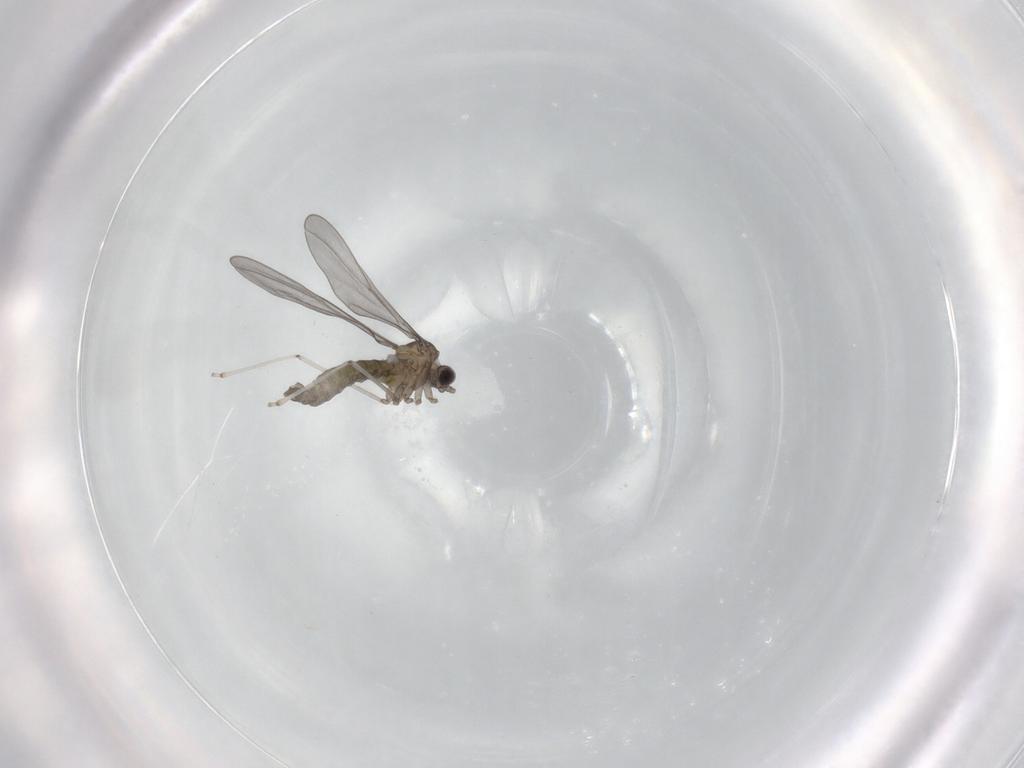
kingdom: Animalia
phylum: Arthropoda
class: Insecta
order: Diptera
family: Cecidomyiidae
